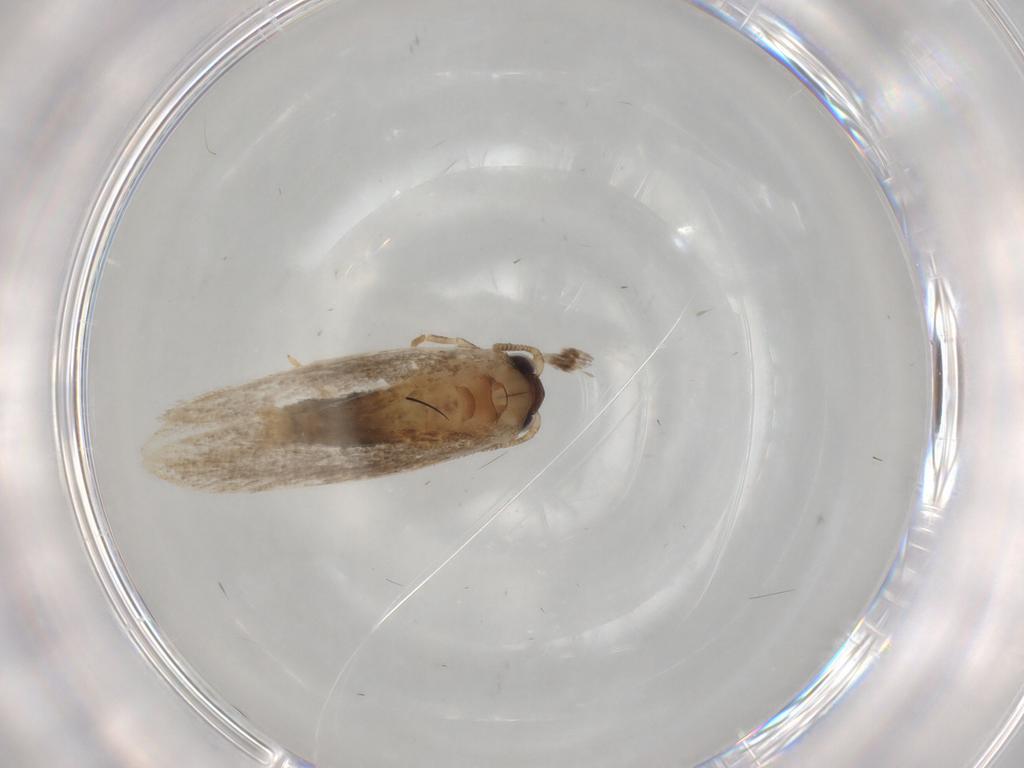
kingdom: Animalia
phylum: Arthropoda
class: Insecta
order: Lepidoptera
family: Erebidae
